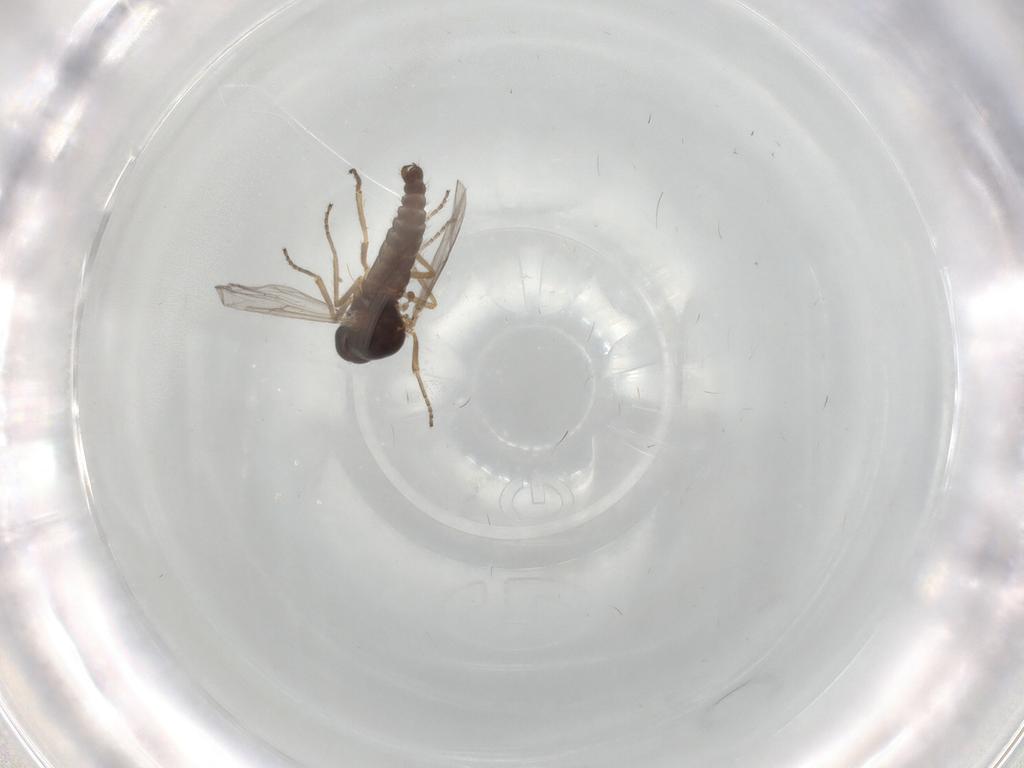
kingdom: Animalia
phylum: Arthropoda
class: Insecta
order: Diptera
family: Ceratopogonidae
